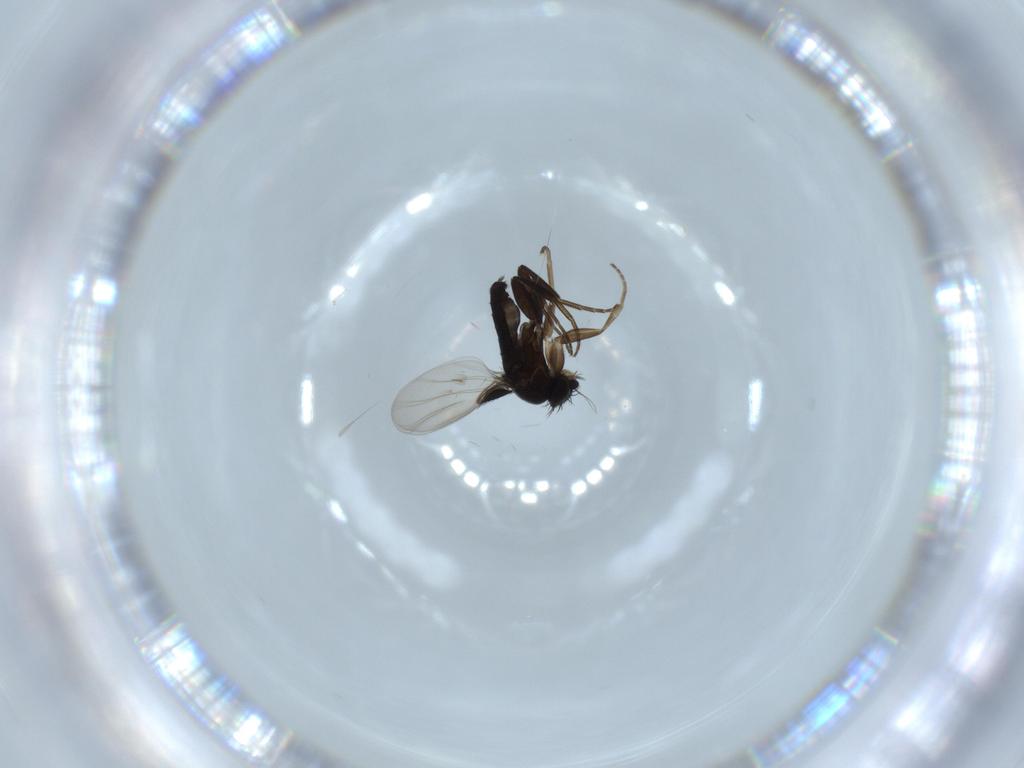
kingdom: Animalia
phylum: Arthropoda
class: Insecta
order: Diptera
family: Phoridae
